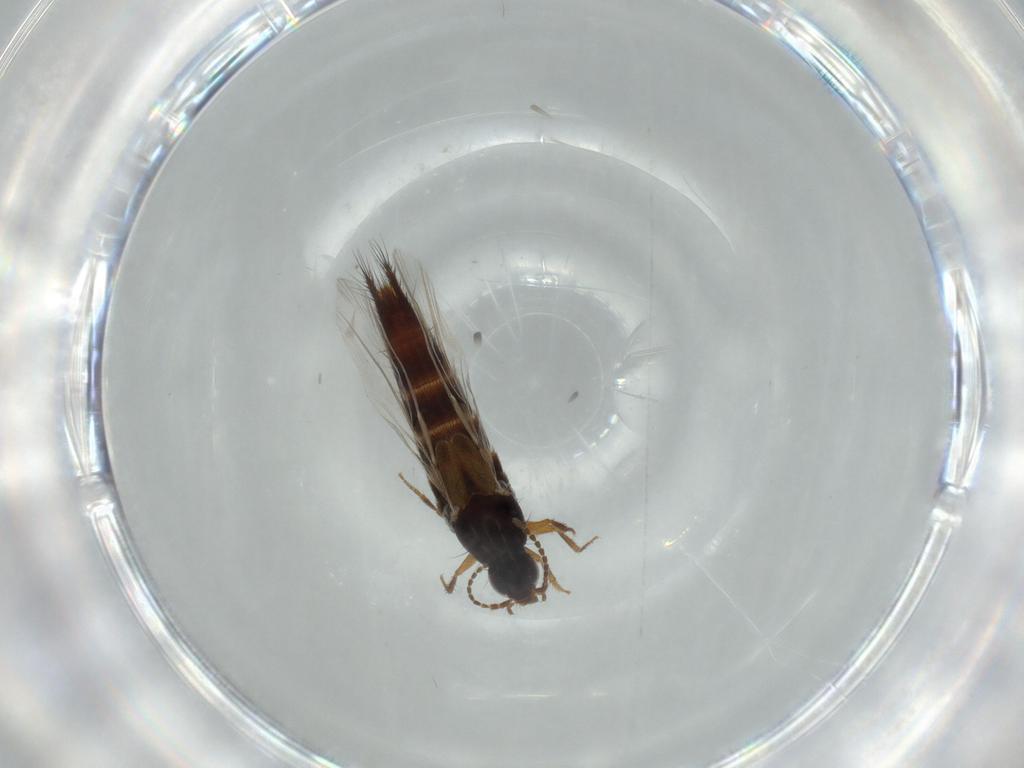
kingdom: Animalia
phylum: Arthropoda
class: Insecta
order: Coleoptera
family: Staphylinidae
